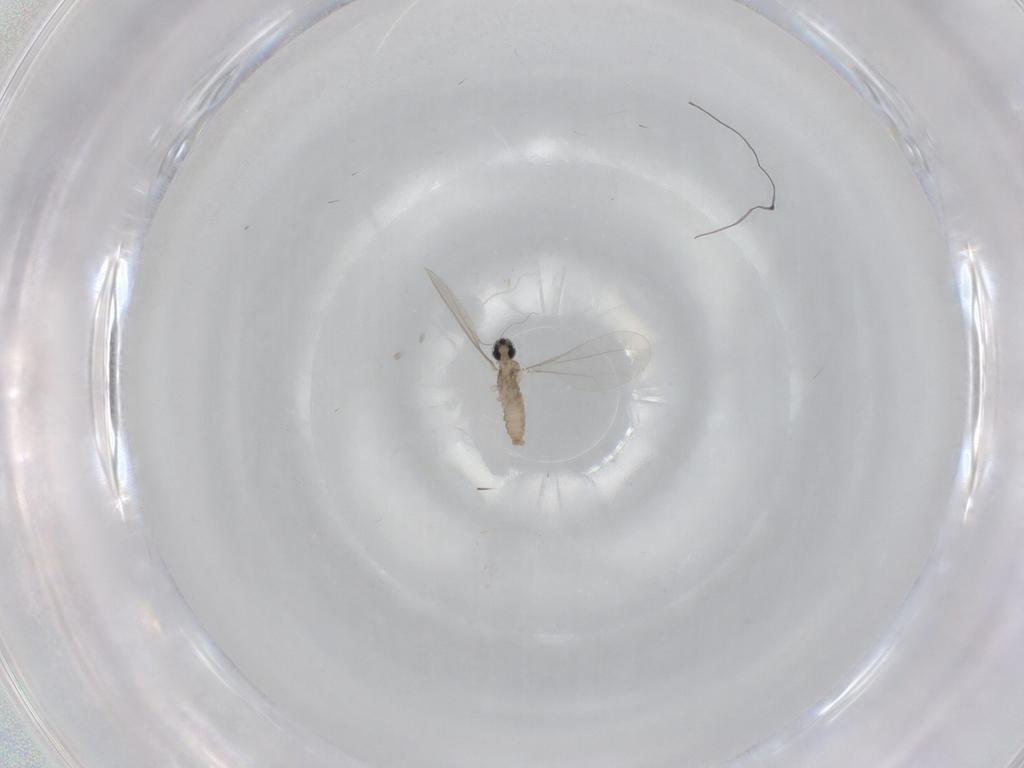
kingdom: Animalia
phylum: Arthropoda
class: Insecta
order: Diptera
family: Cecidomyiidae
